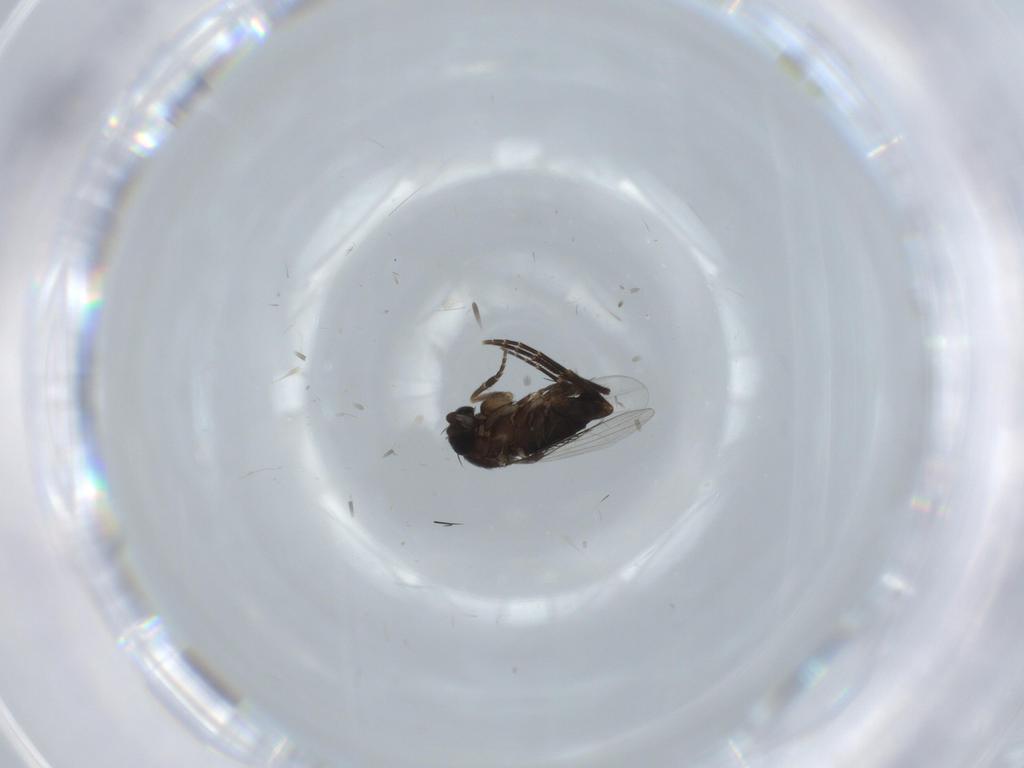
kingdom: Animalia
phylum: Arthropoda
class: Insecta
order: Diptera
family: Phoridae
